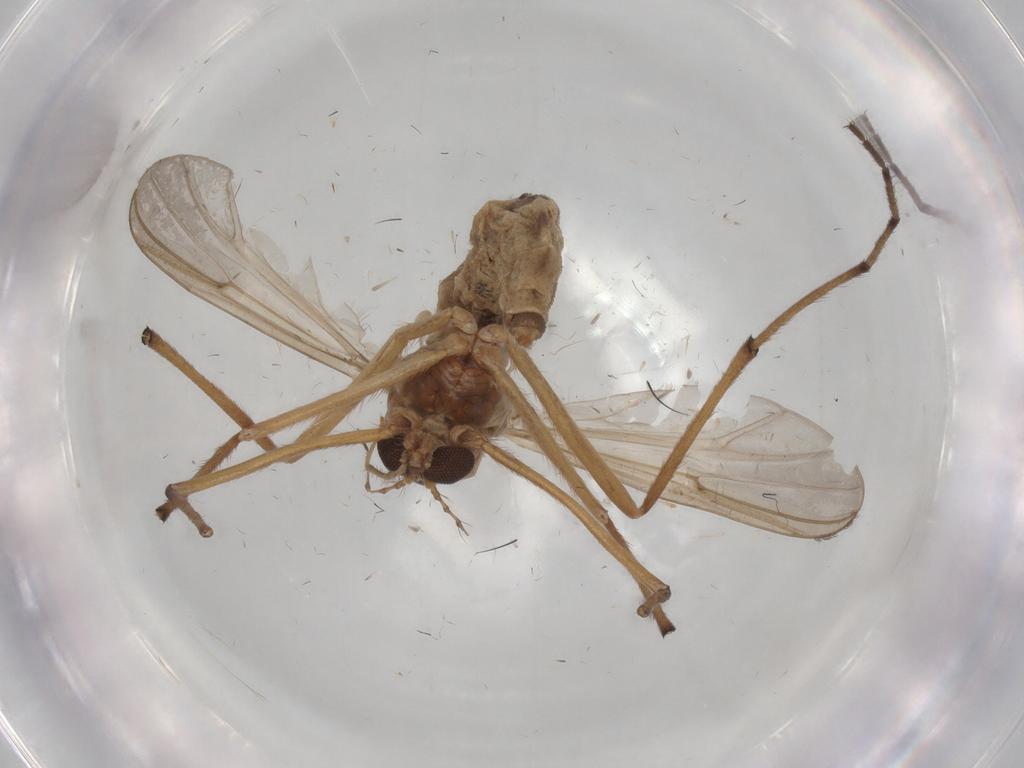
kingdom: Animalia
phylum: Arthropoda
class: Insecta
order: Diptera
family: Chironomidae
